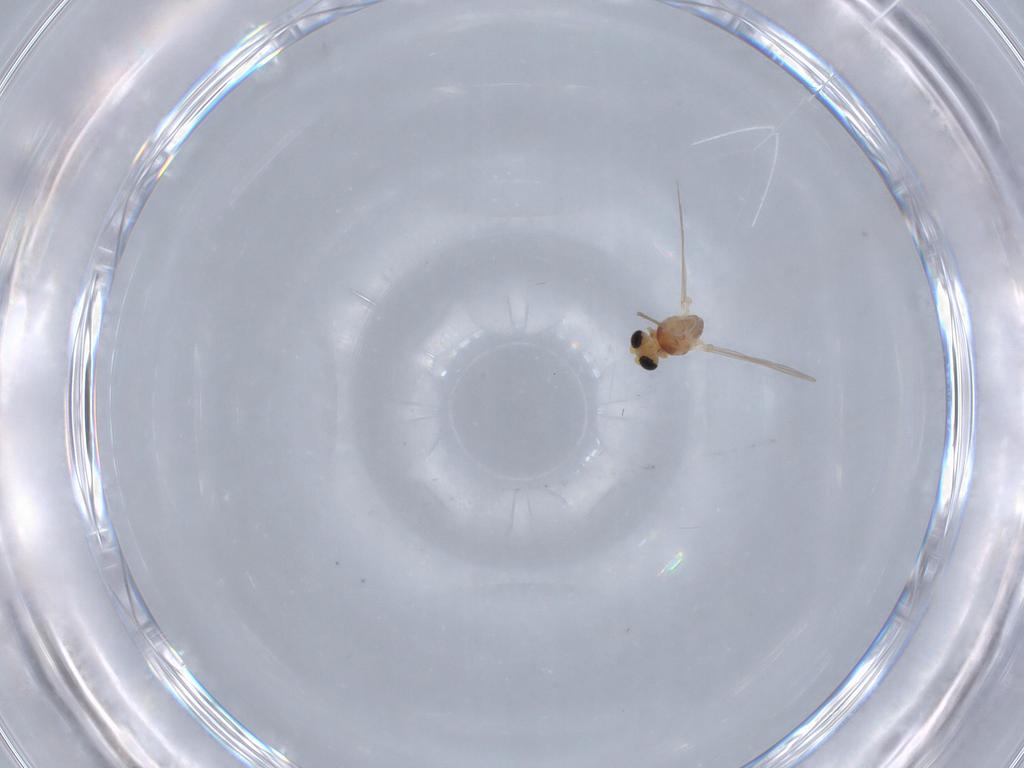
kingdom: Animalia
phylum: Arthropoda
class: Insecta
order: Diptera
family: Chironomidae
